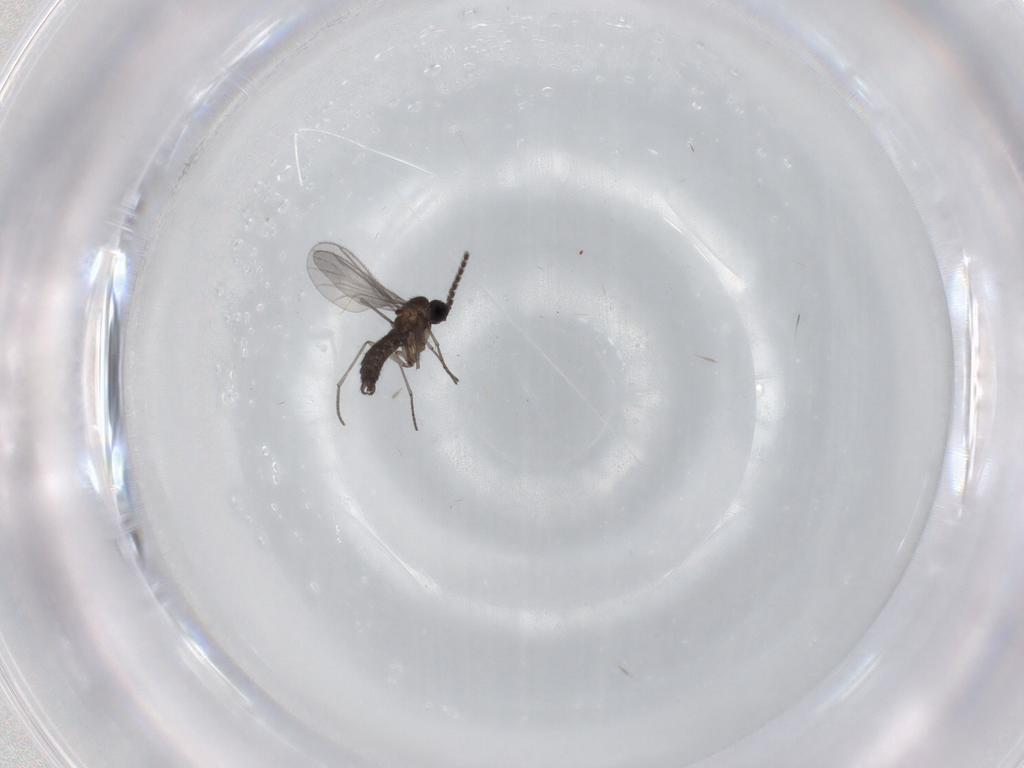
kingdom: Animalia
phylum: Arthropoda
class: Insecta
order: Diptera
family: Sciaridae
